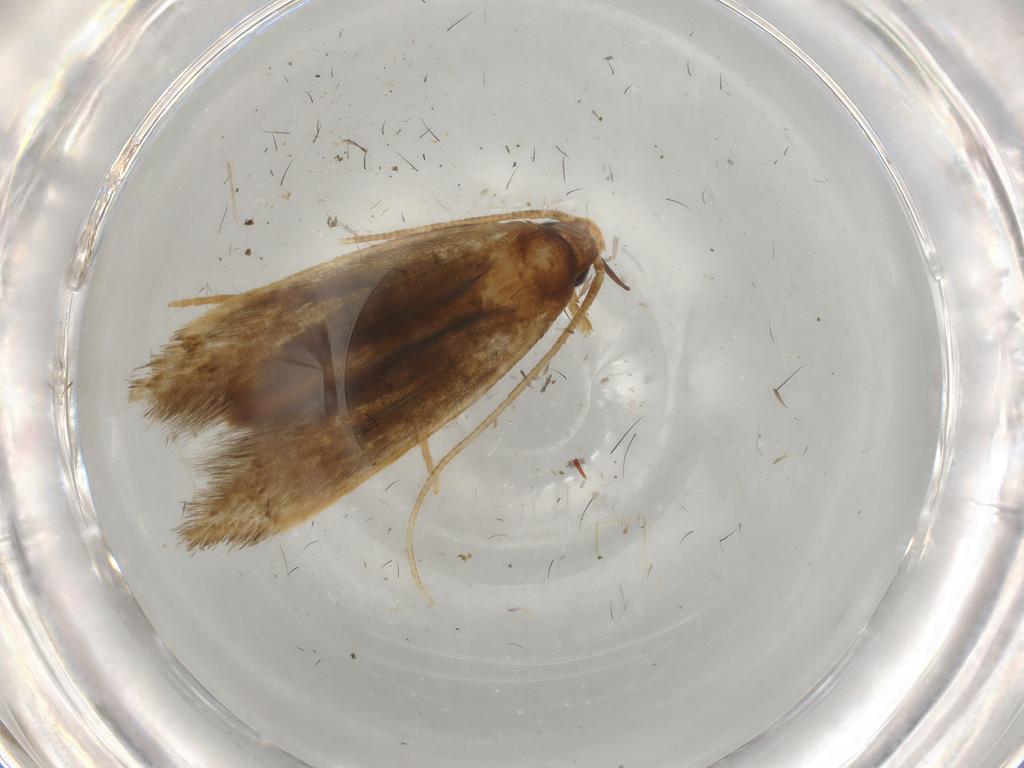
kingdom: Animalia
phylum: Arthropoda
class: Insecta
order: Lepidoptera
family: Tineidae
